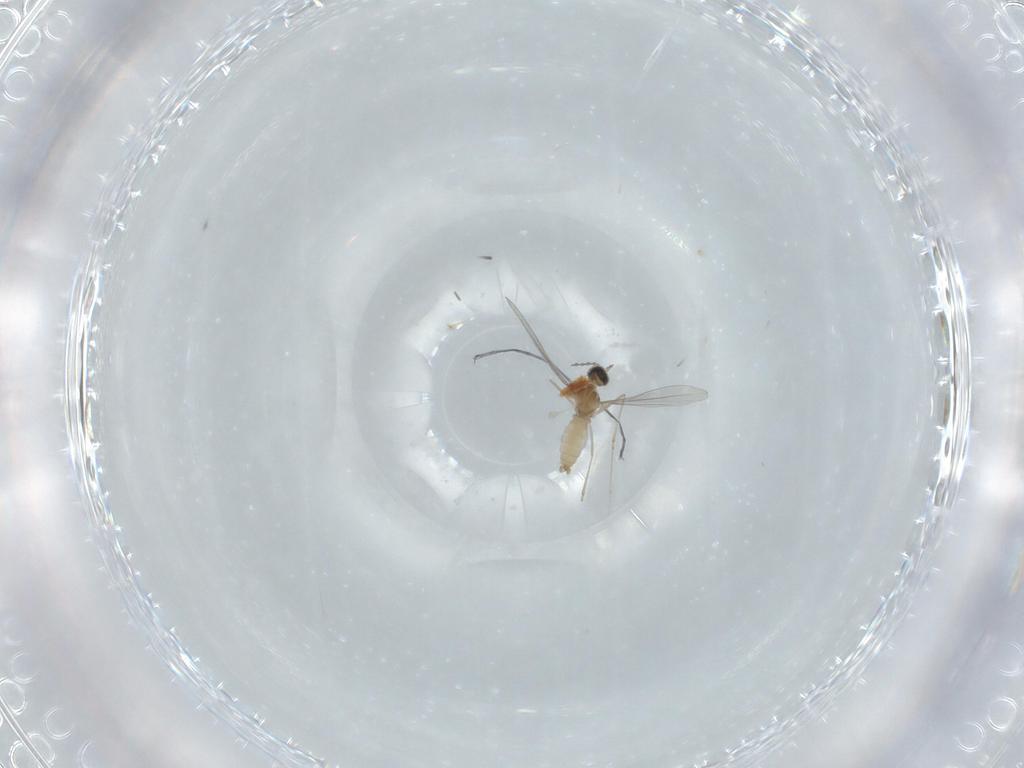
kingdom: Animalia
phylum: Arthropoda
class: Insecta
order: Diptera
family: Cecidomyiidae
